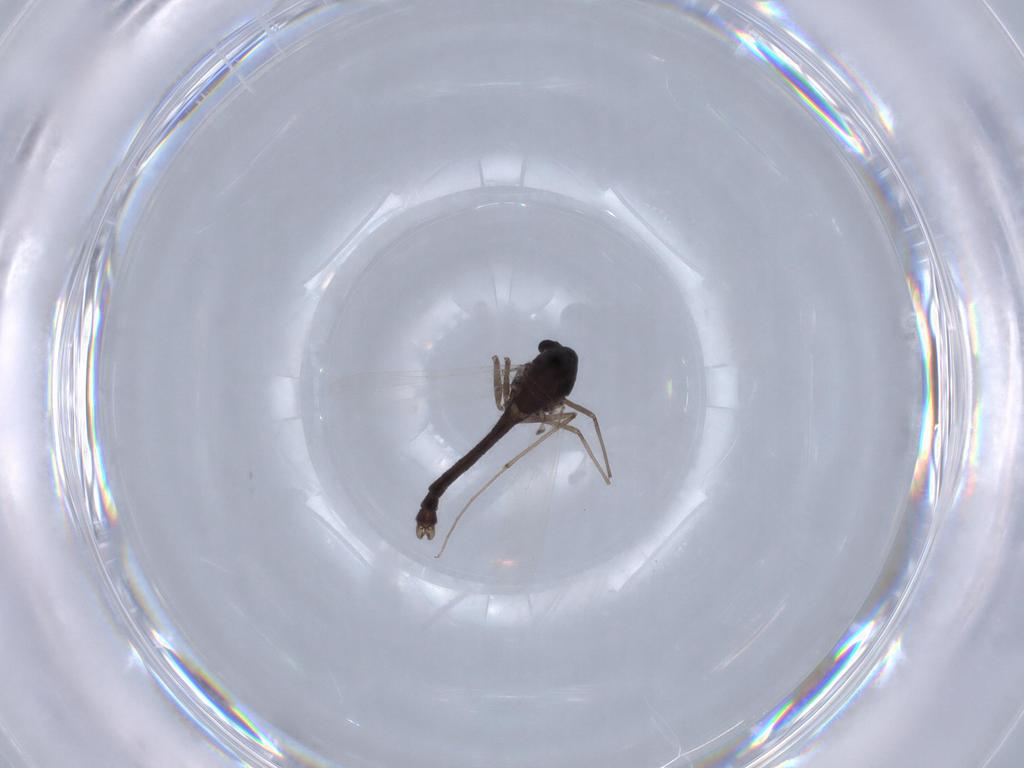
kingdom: Animalia
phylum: Arthropoda
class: Insecta
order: Diptera
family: Chironomidae
